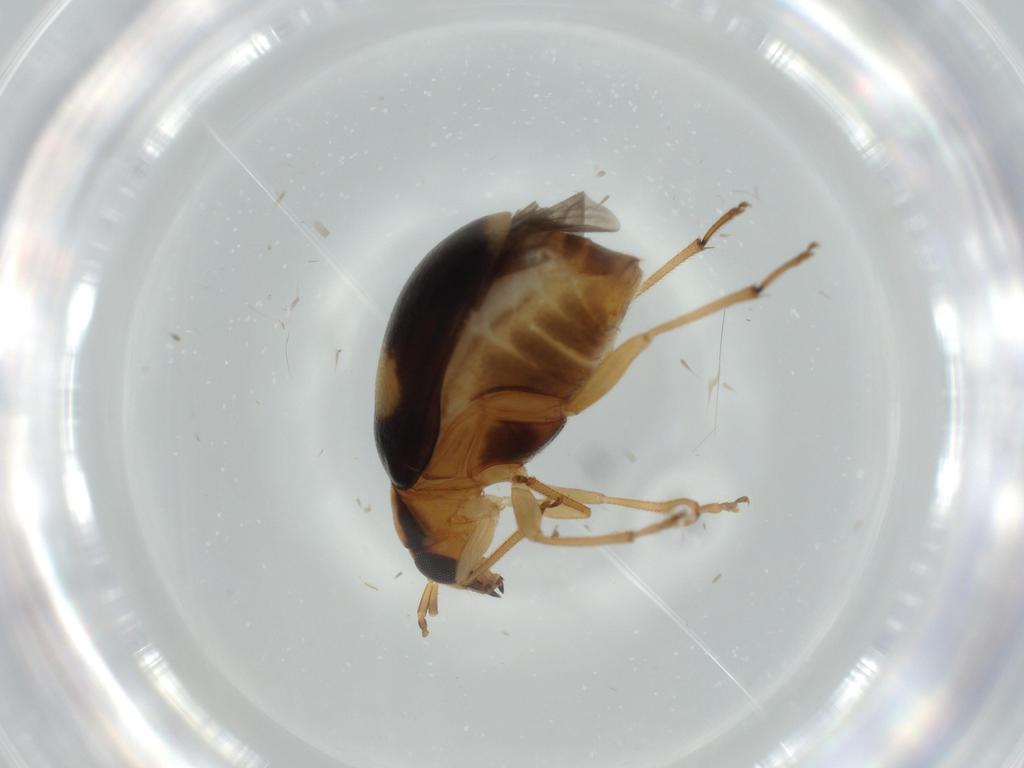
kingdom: Animalia
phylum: Arthropoda
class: Insecta
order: Coleoptera
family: Chrysomelidae
